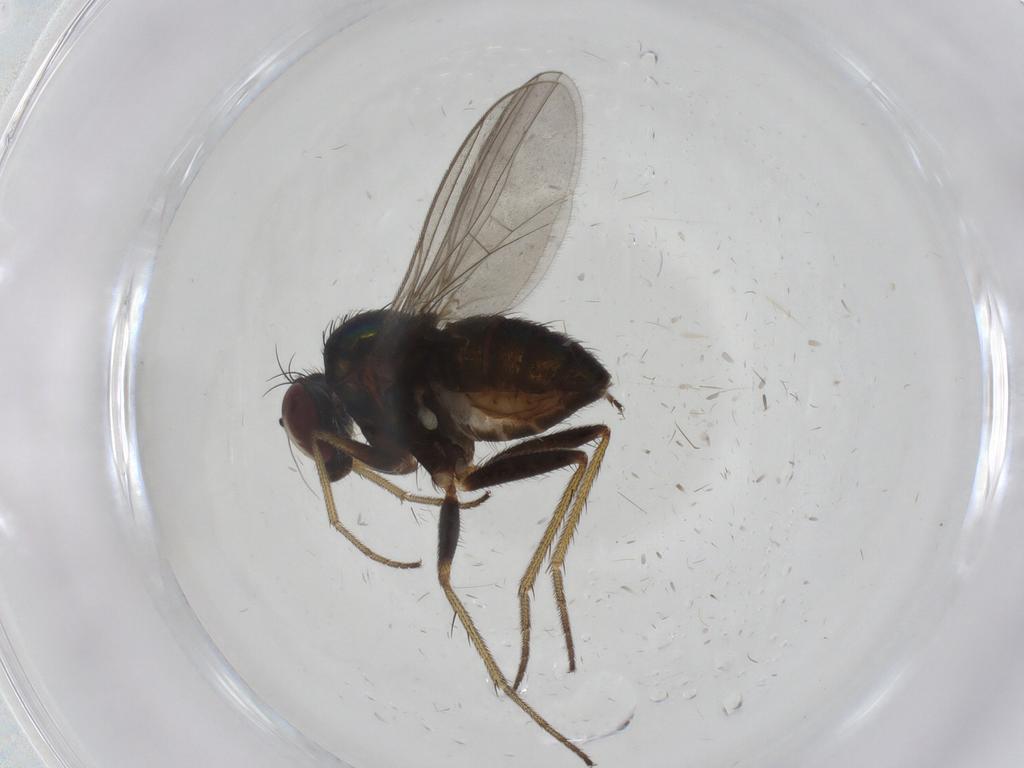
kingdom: Animalia
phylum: Arthropoda
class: Insecta
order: Diptera
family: Dolichopodidae
